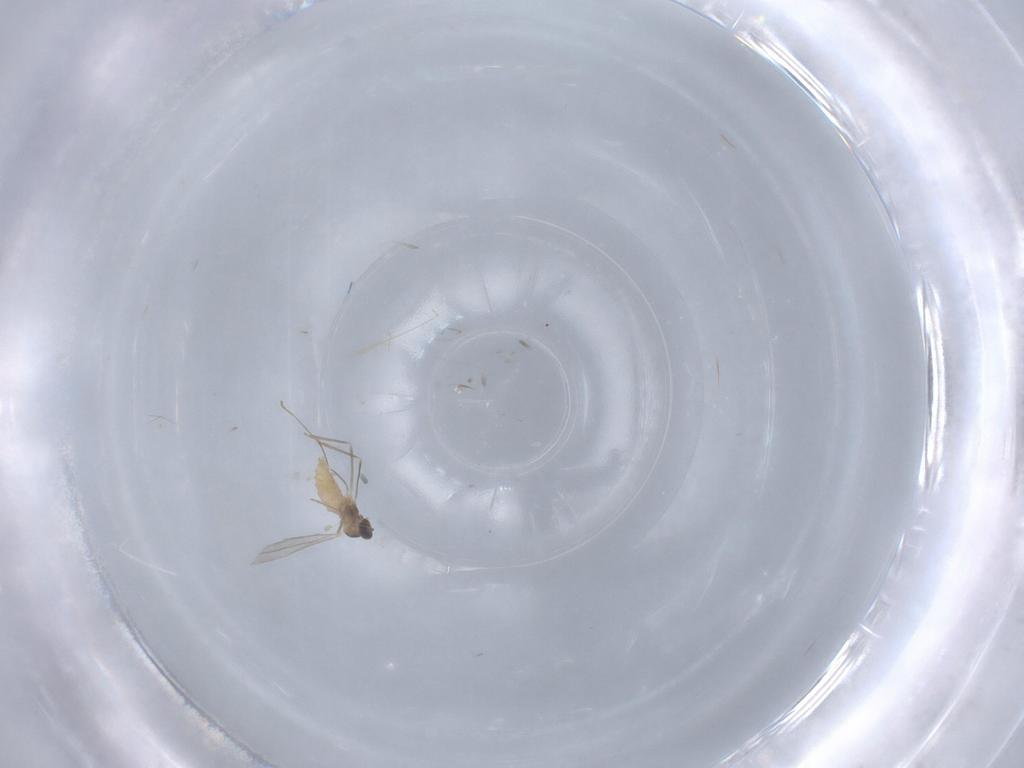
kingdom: Animalia
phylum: Arthropoda
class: Insecta
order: Diptera
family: Cecidomyiidae
